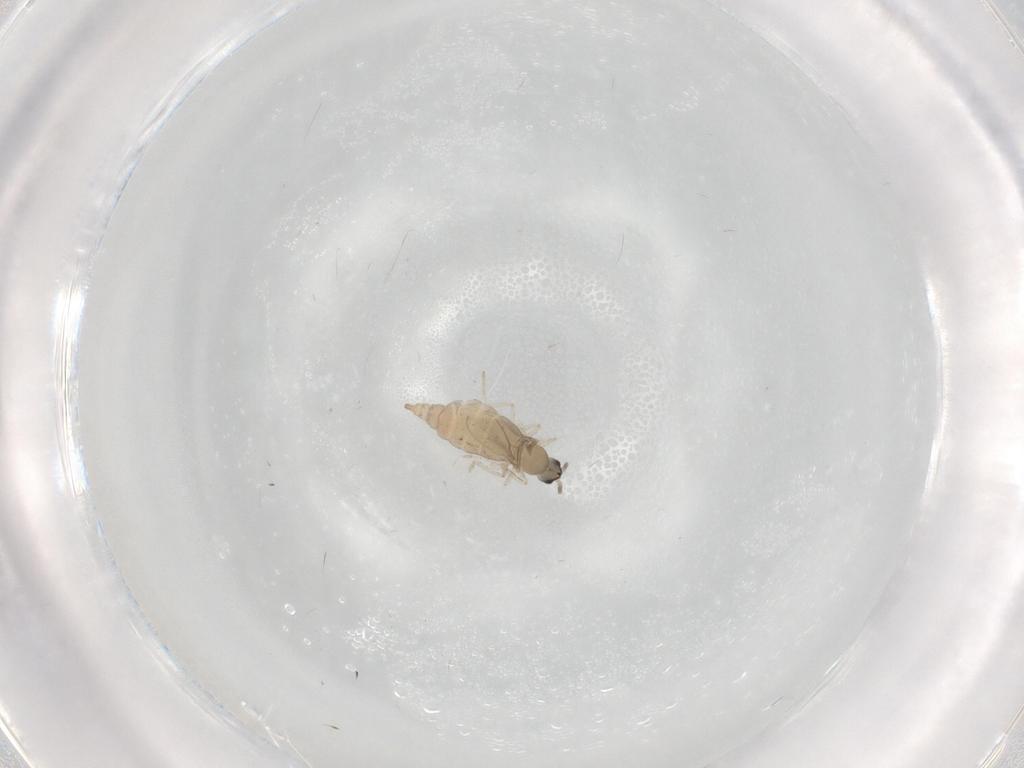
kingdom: Animalia
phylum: Arthropoda
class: Insecta
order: Diptera
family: Cecidomyiidae
